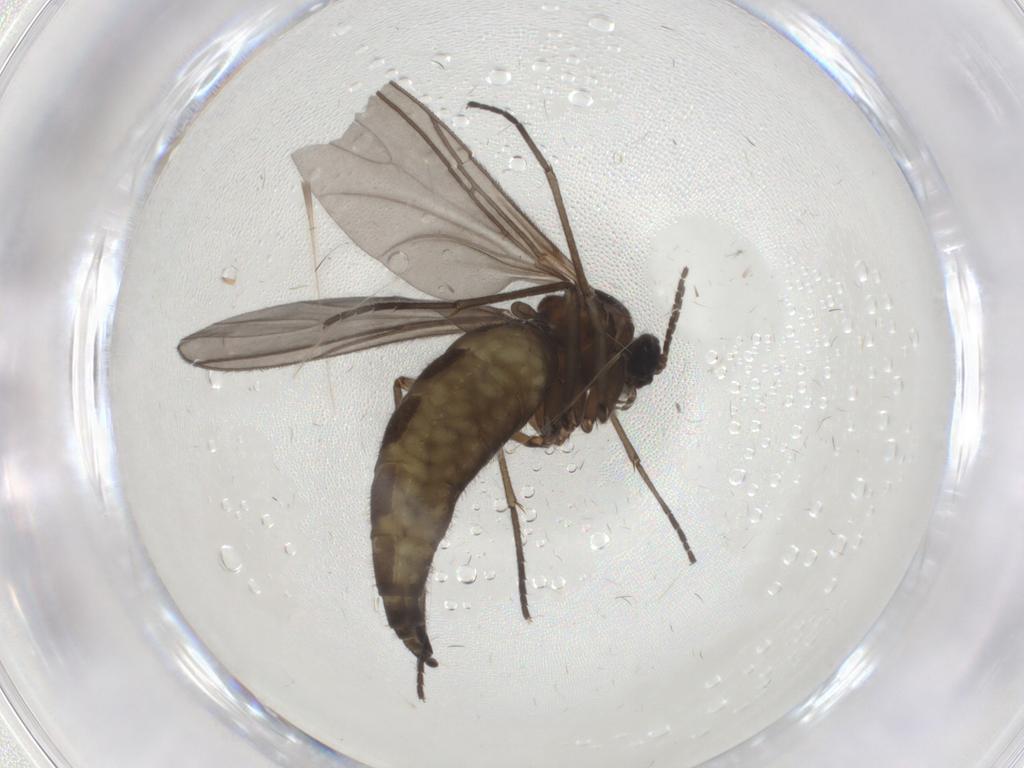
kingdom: Animalia
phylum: Arthropoda
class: Insecta
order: Diptera
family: Sciaridae
